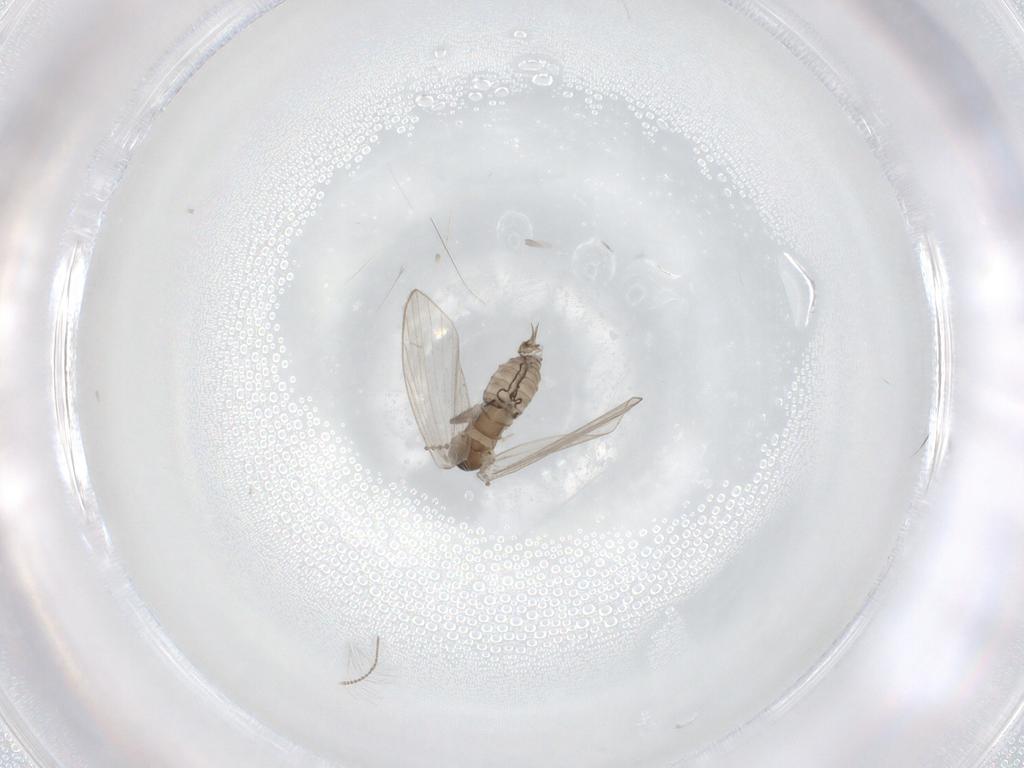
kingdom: Animalia
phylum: Arthropoda
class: Insecta
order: Diptera
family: Psychodidae
